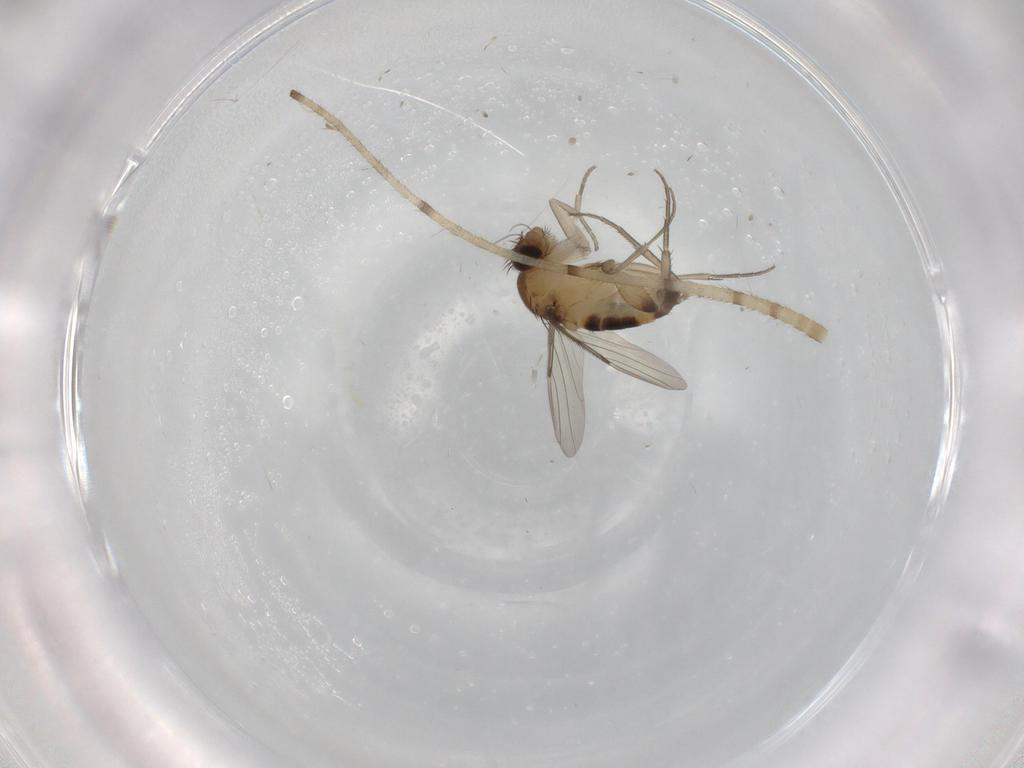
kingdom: Animalia
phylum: Arthropoda
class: Insecta
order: Diptera
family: Phoridae
